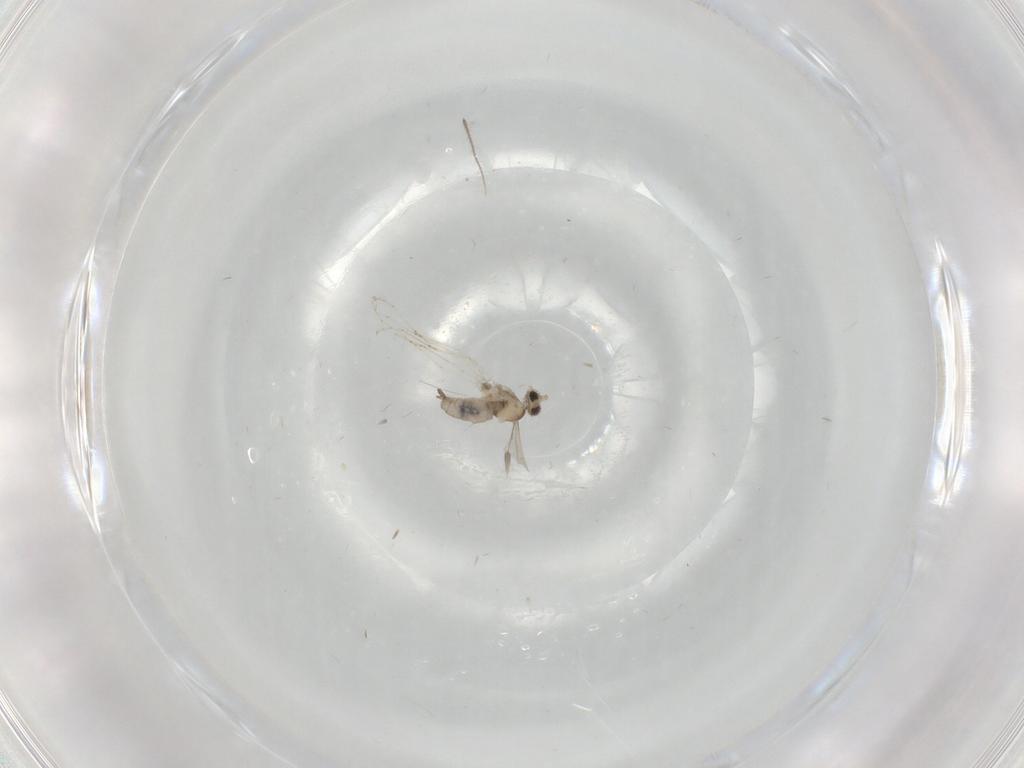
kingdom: Animalia
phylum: Arthropoda
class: Insecta
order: Diptera
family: Cecidomyiidae
